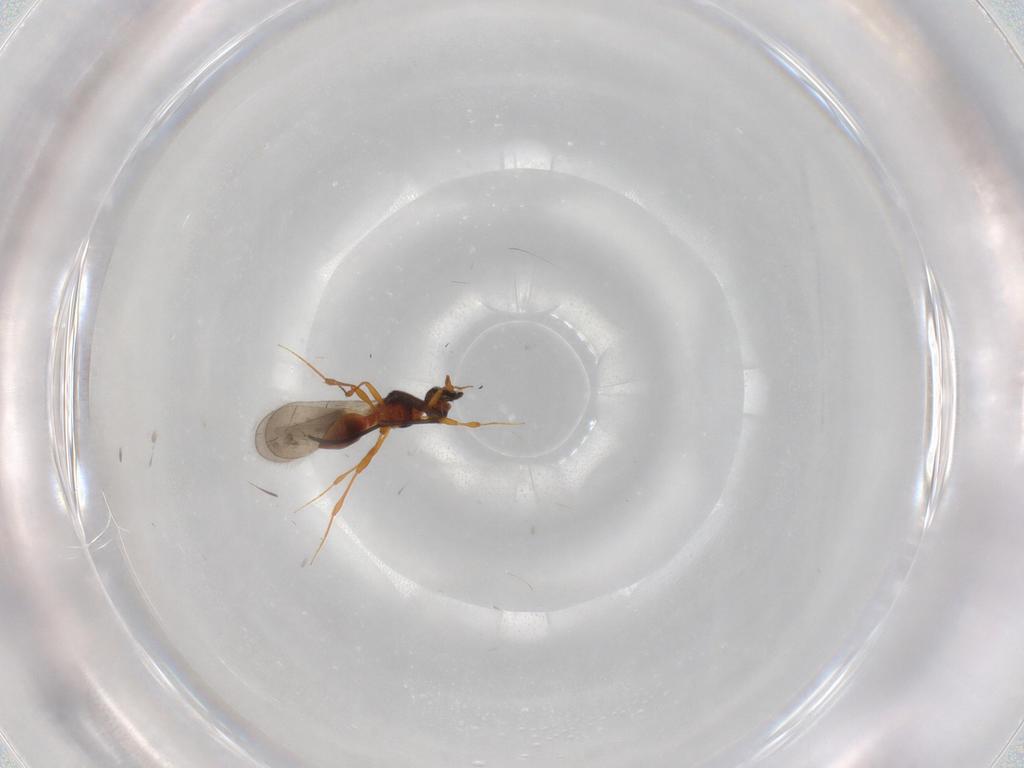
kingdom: Animalia
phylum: Arthropoda
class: Insecta
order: Hymenoptera
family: Platygastridae
